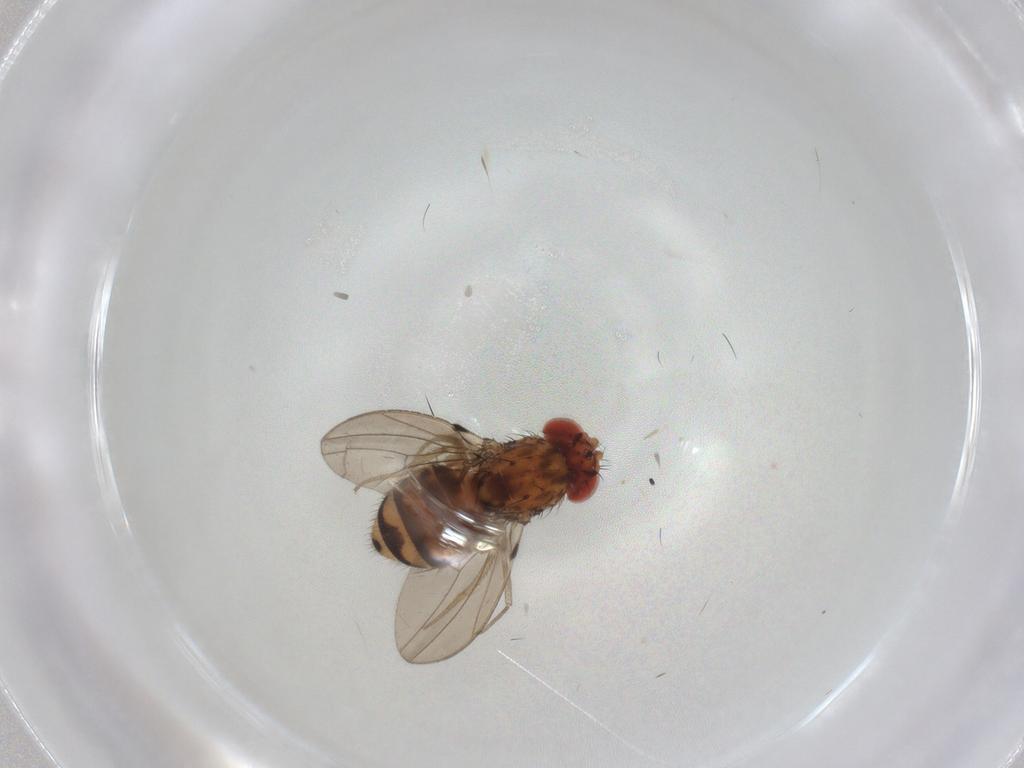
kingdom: Animalia
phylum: Arthropoda
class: Insecta
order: Diptera
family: Drosophilidae
